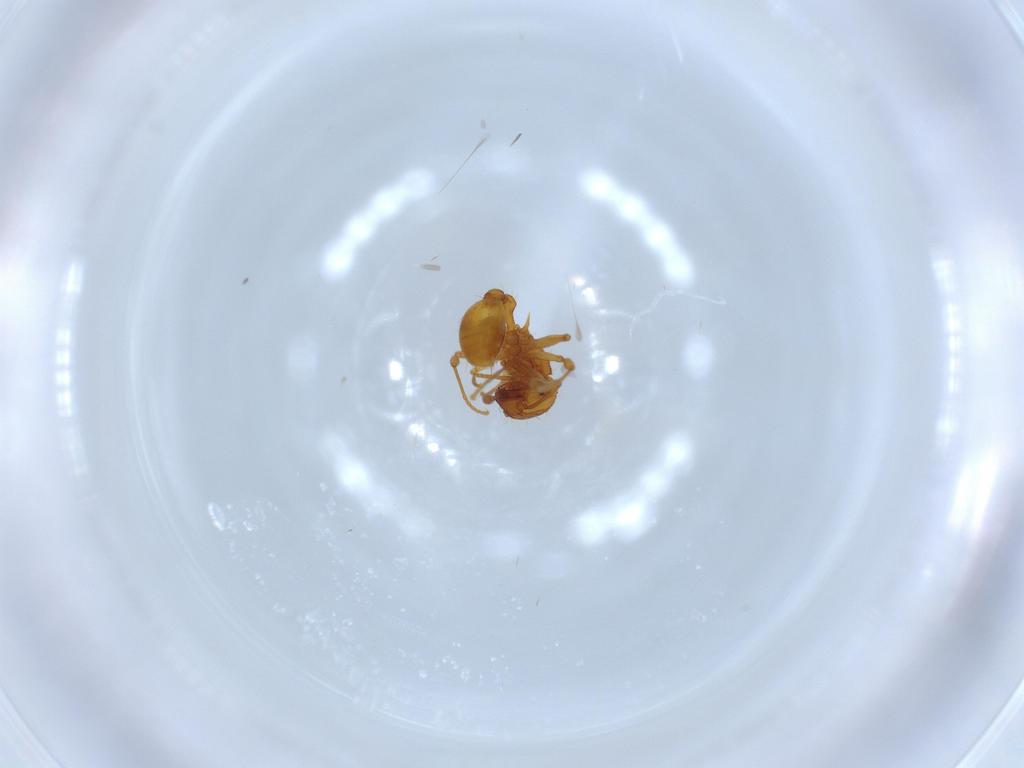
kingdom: Animalia
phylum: Arthropoda
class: Insecta
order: Hymenoptera
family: Formicidae
